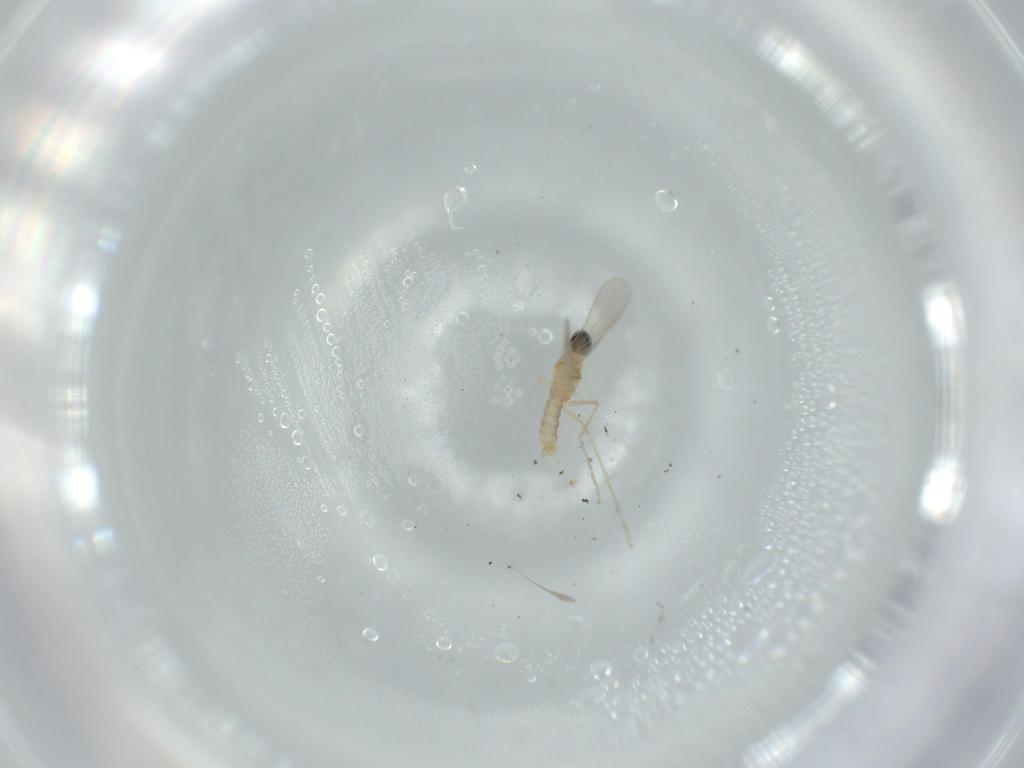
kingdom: Animalia
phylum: Arthropoda
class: Insecta
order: Diptera
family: Cecidomyiidae
